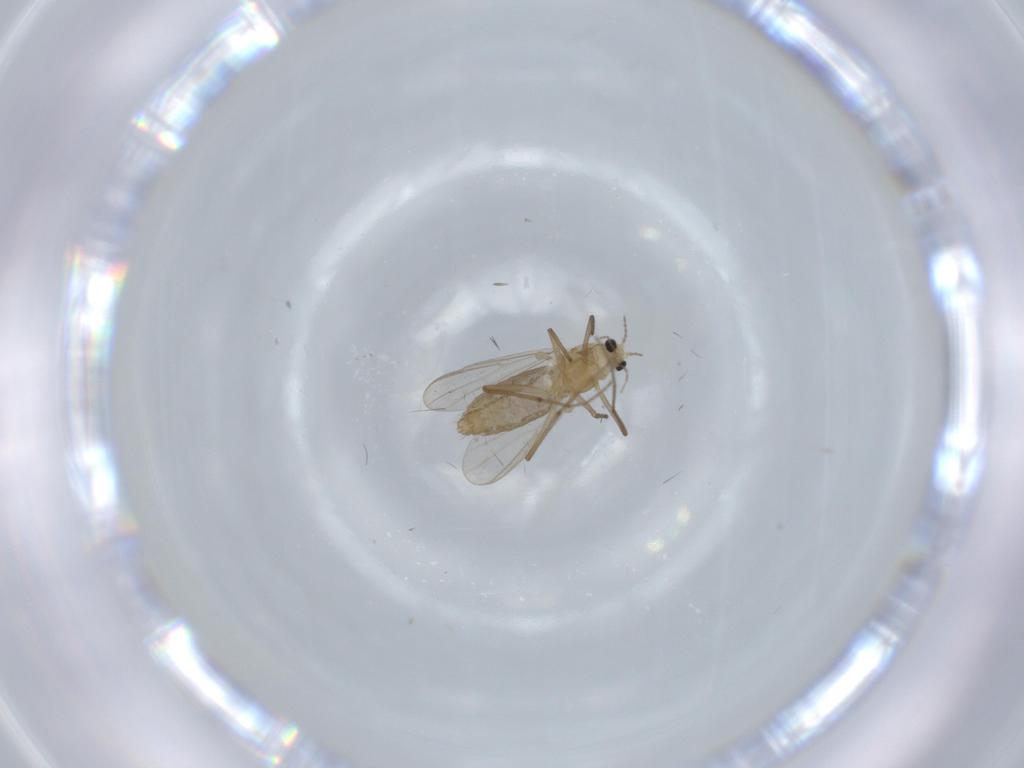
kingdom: Animalia
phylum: Arthropoda
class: Insecta
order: Diptera
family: Chironomidae
